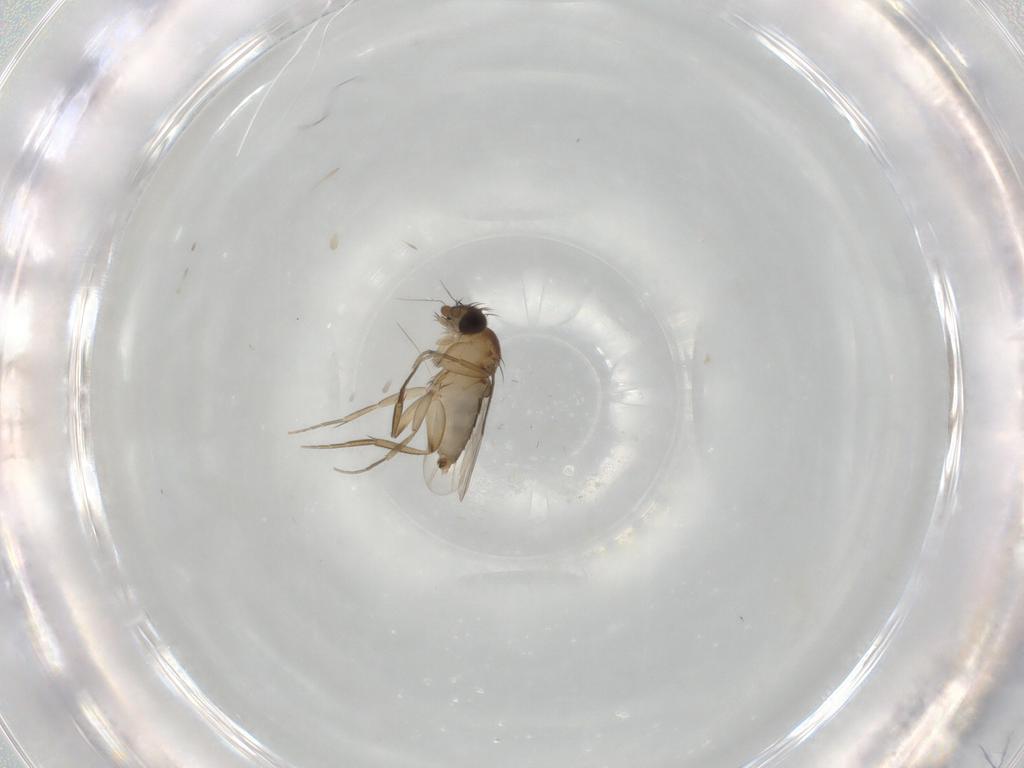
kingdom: Animalia
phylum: Arthropoda
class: Insecta
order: Diptera
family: Phoridae
